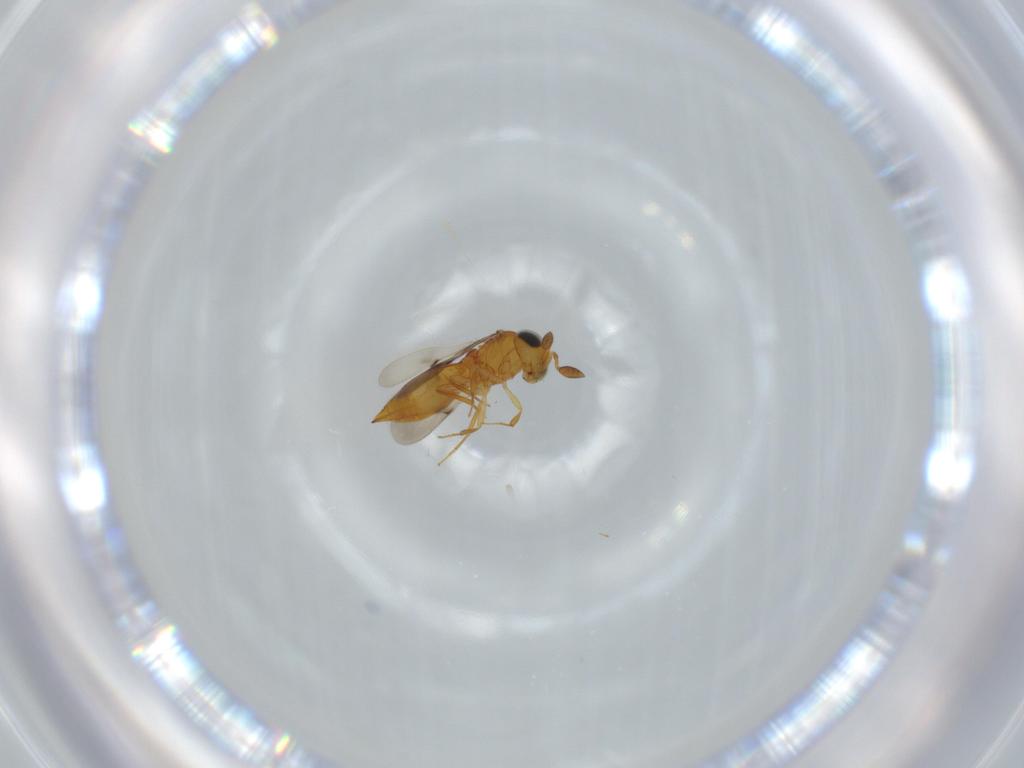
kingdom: Animalia
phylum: Arthropoda
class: Insecta
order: Hymenoptera
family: Scelionidae
